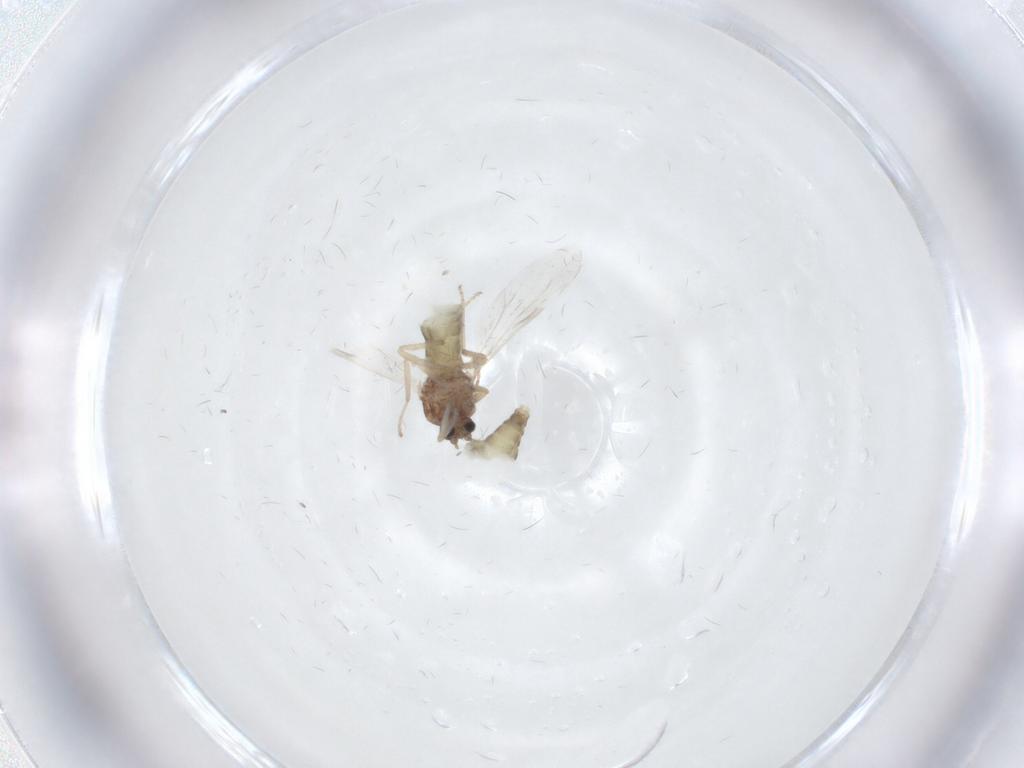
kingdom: Animalia
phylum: Arthropoda
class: Insecta
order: Diptera
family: Ceratopogonidae
